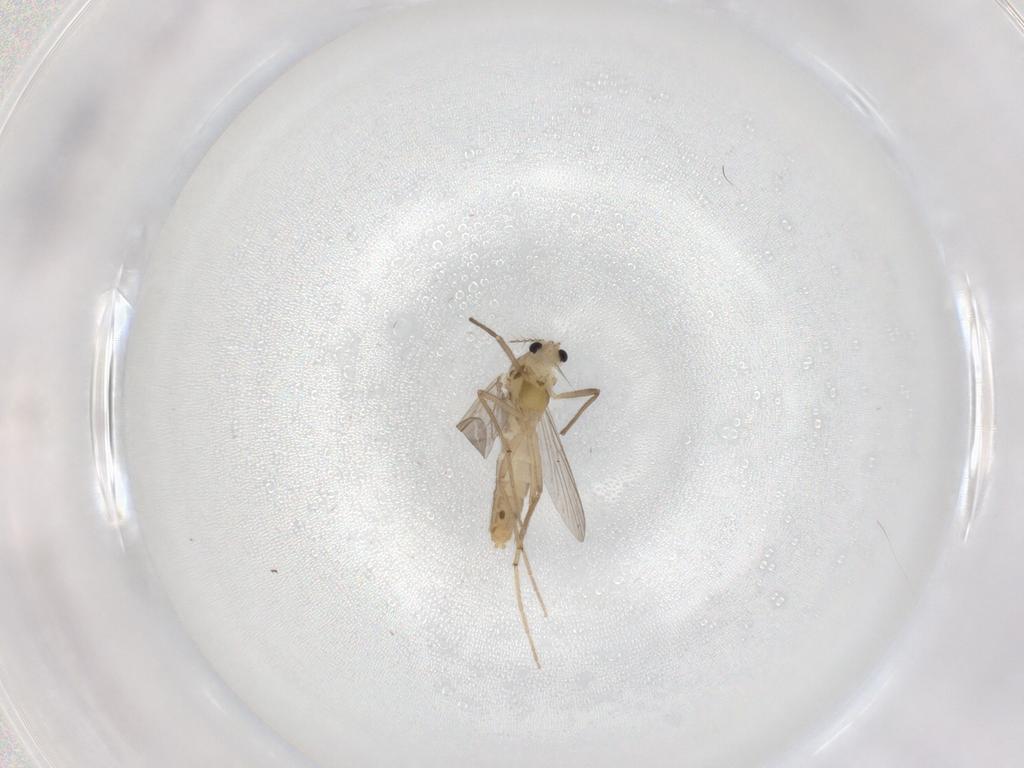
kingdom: Animalia
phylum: Arthropoda
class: Insecta
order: Diptera
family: Chironomidae
